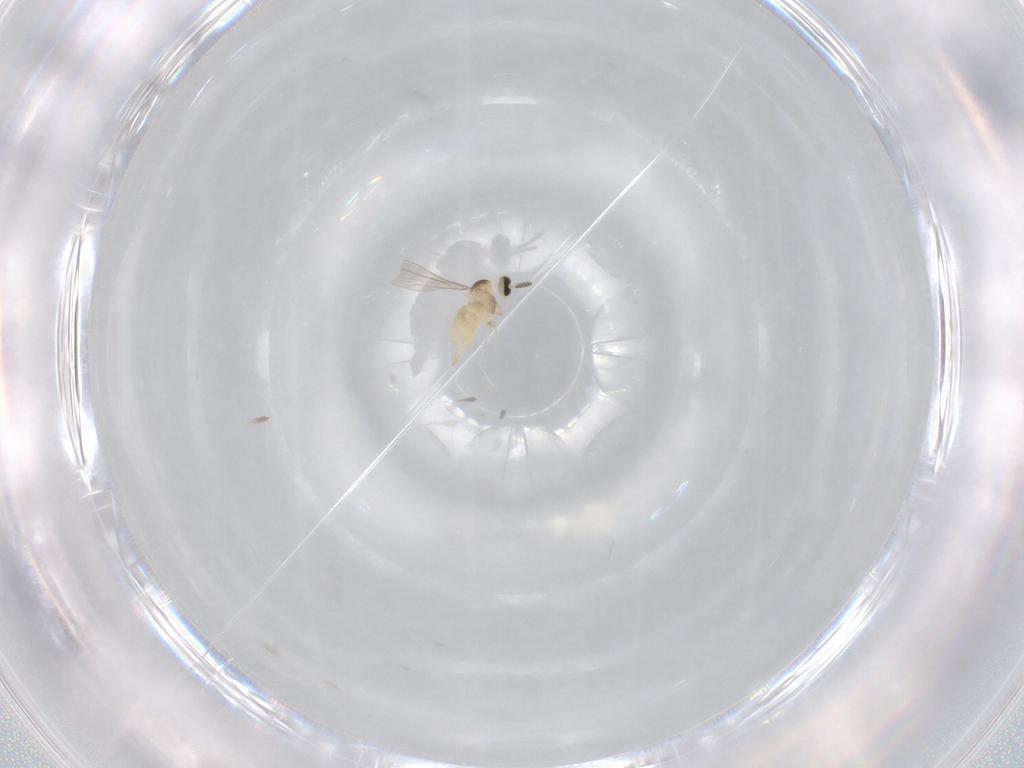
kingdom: Animalia
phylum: Arthropoda
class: Insecta
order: Diptera
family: Cecidomyiidae
